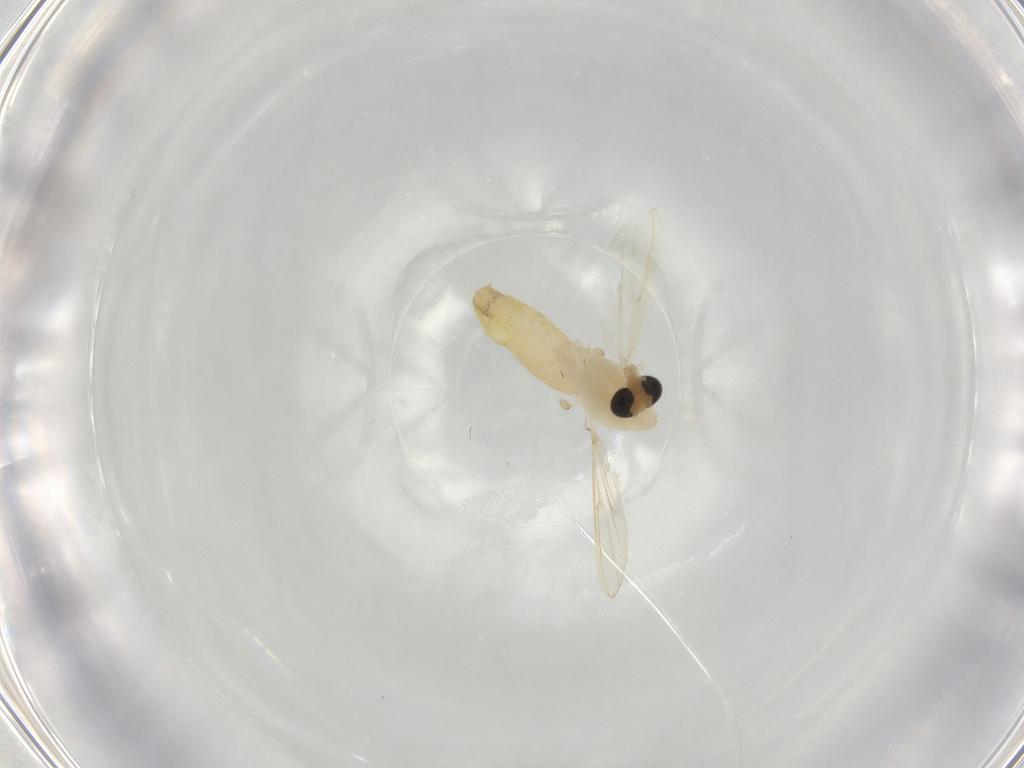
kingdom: Animalia
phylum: Arthropoda
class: Insecta
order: Diptera
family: Chironomidae
